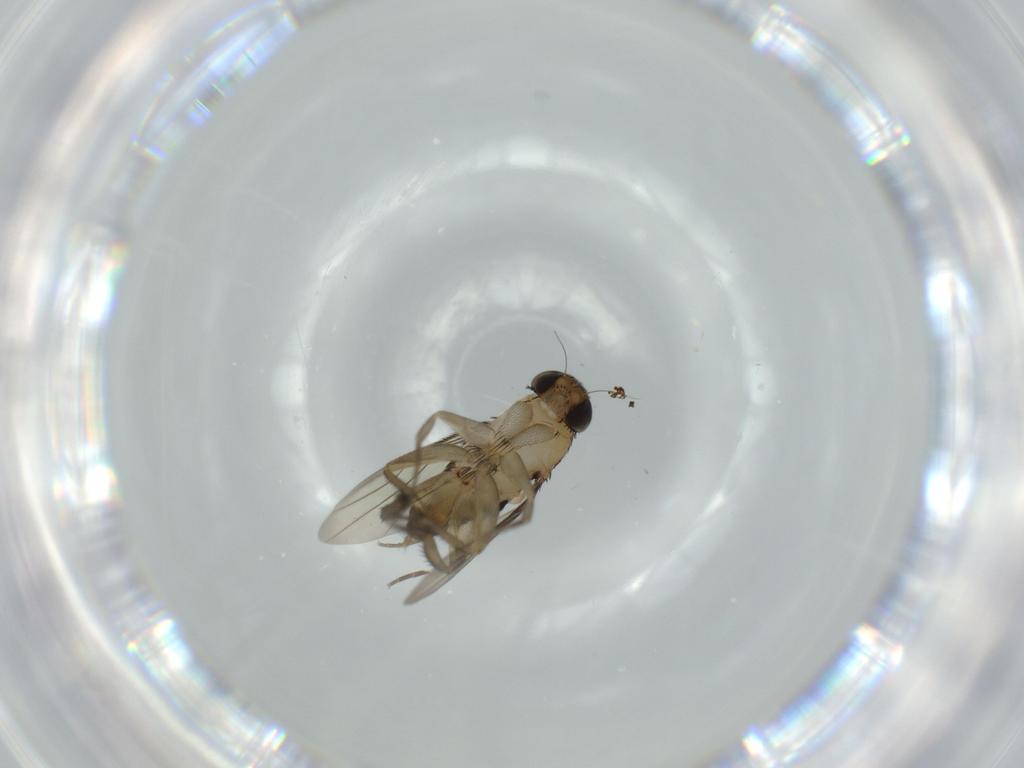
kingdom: Animalia
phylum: Arthropoda
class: Insecta
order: Diptera
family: Phoridae
